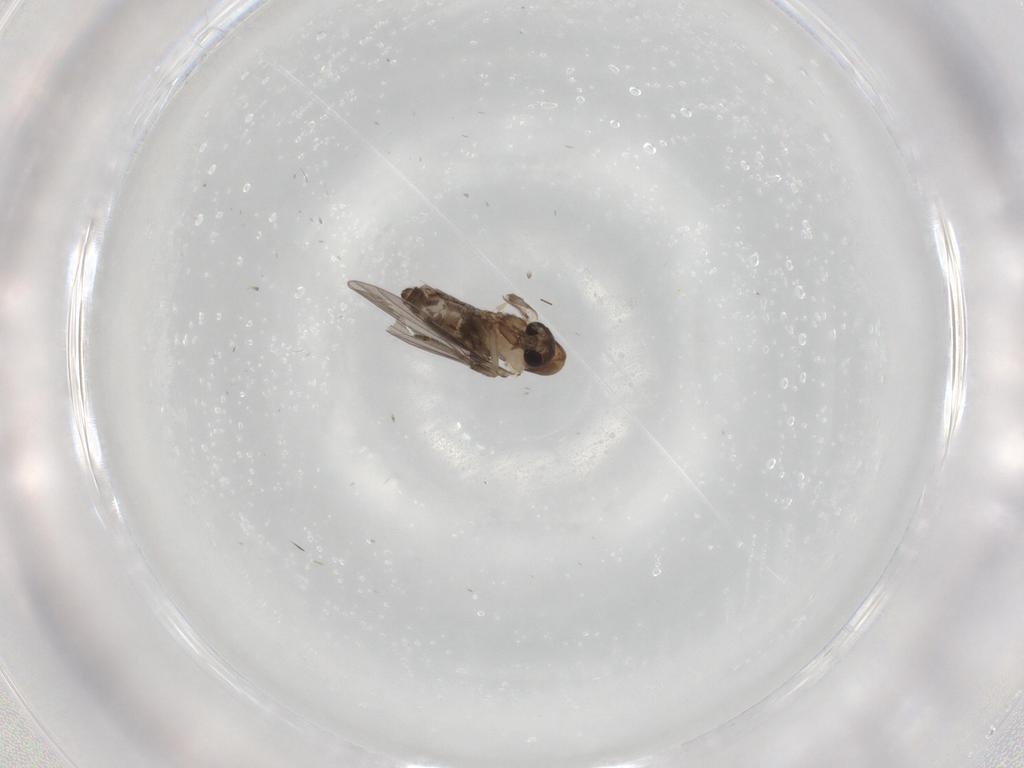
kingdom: Animalia
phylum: Arthropoda
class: Insecta
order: Diptera
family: Psychodidae
